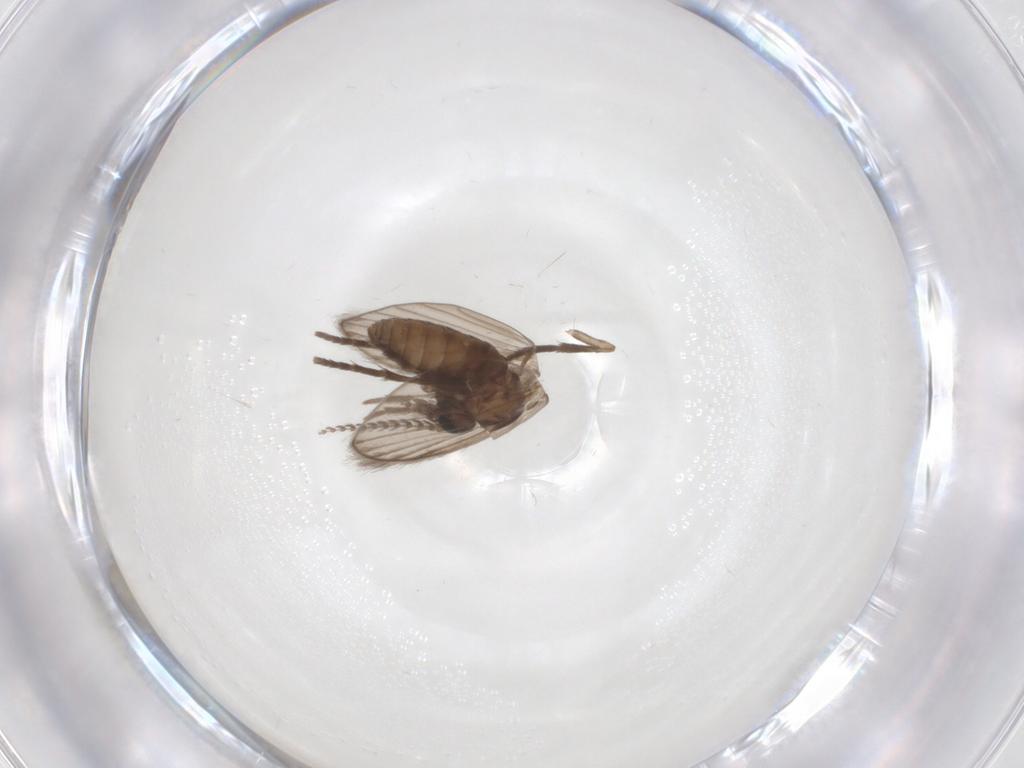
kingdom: Animalia
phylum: Arthropoda
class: Insecta
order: Diptera
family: Psychodidae
